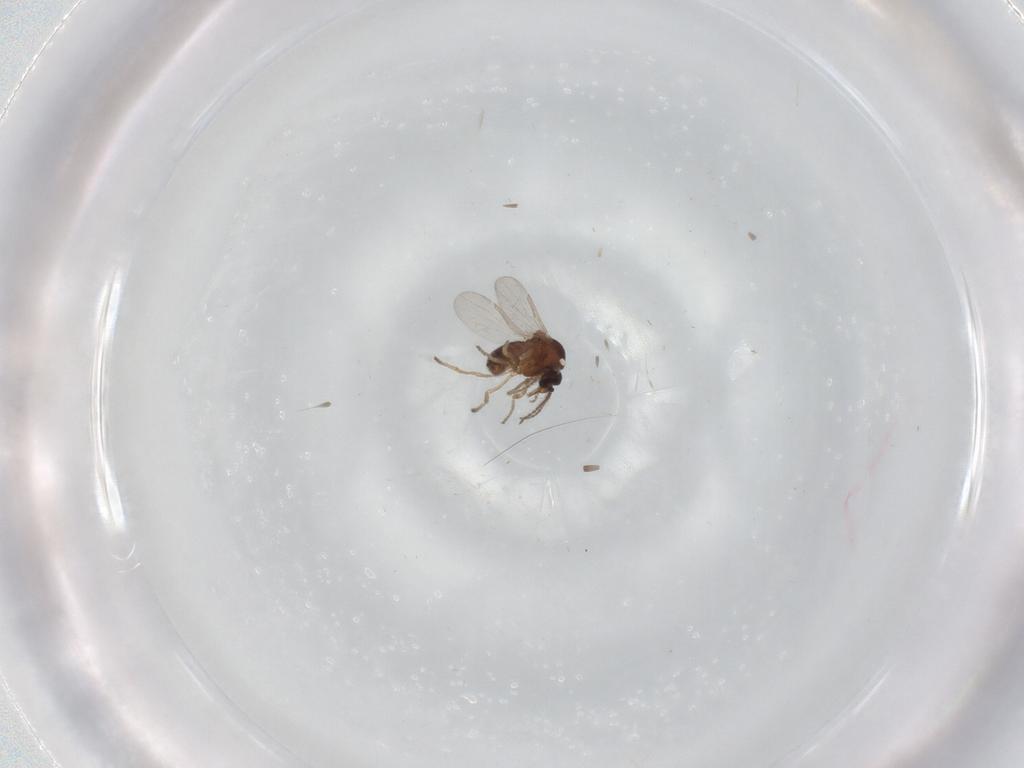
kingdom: Animalia
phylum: Arthropoda
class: Insecta
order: Diptera
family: Ceratopogonidae
